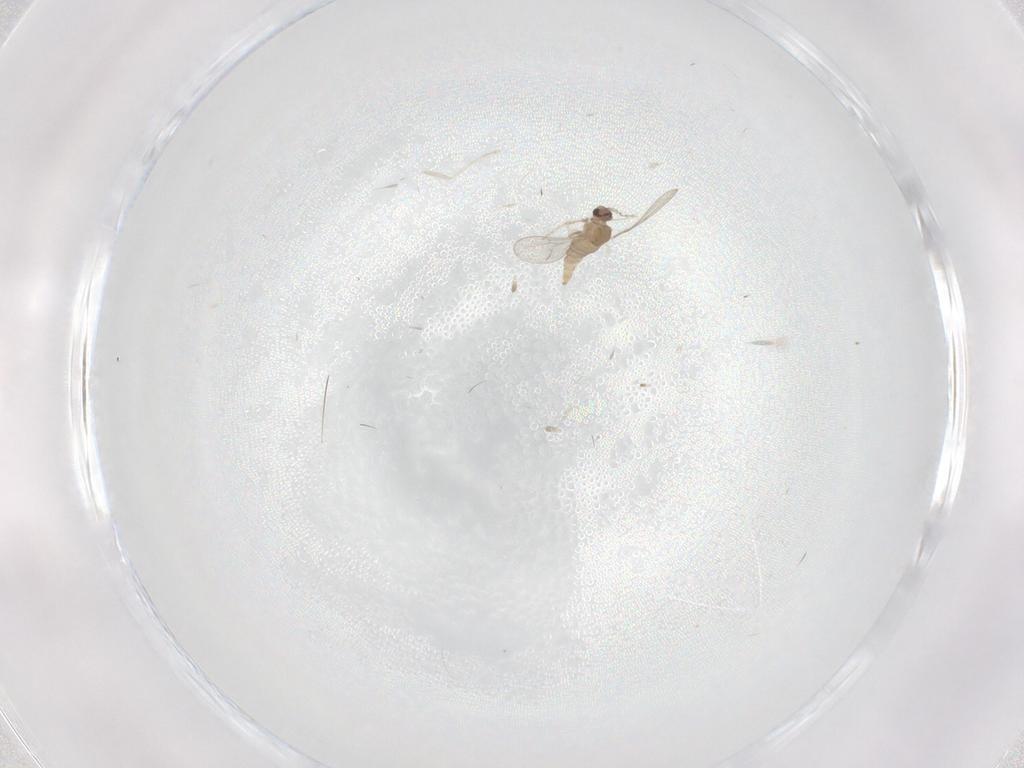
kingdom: Animalia
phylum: Arthropoda
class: Insecta
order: Diptera
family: Cecidomyiidae
